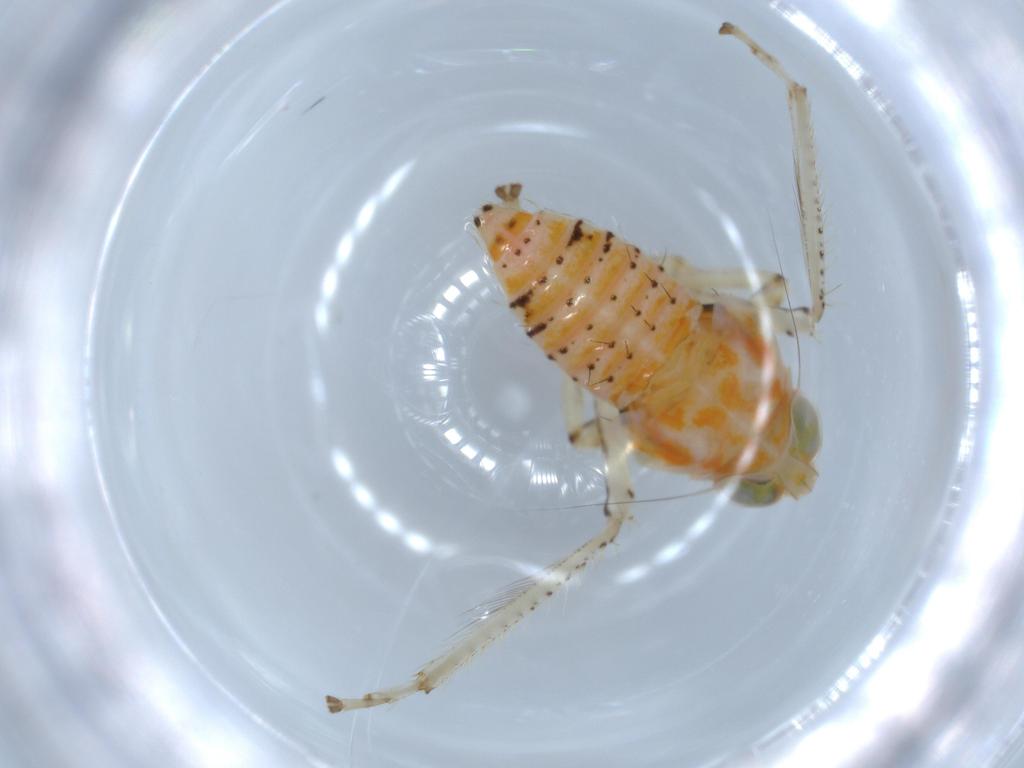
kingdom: Animalia
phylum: Arthropoda
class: Insecta
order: Hemiptera
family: Cicadellidae
